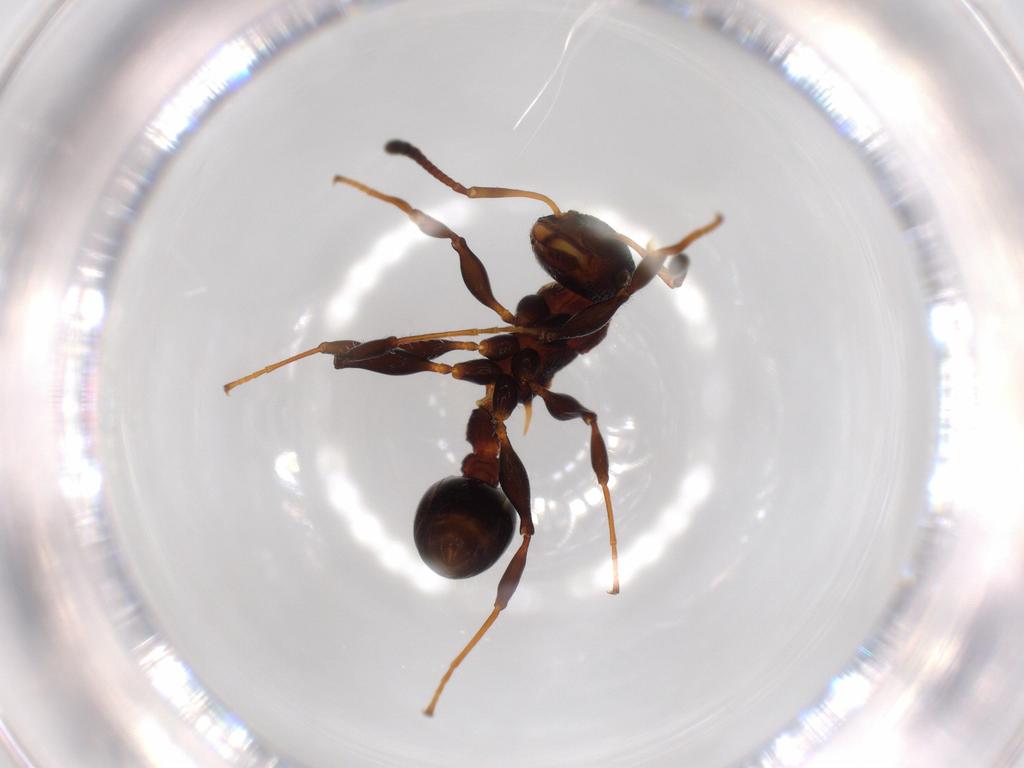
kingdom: Animalia
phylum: Arthropoda
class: Insecta
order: Hymenoptera
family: Formicidae
